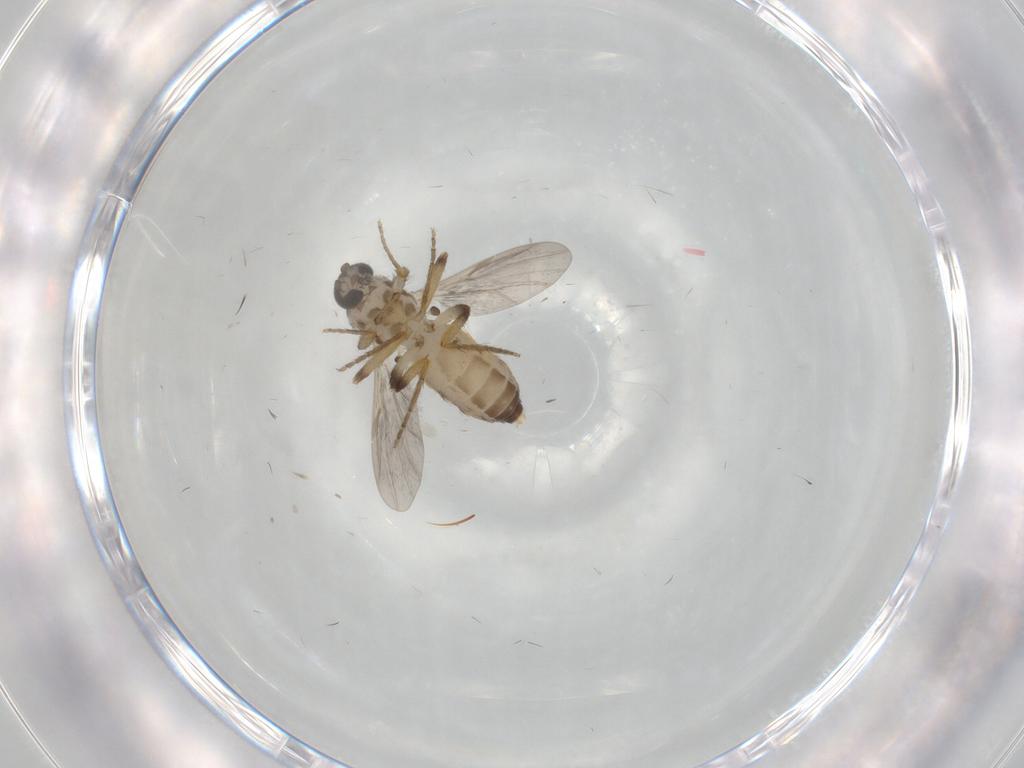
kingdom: Animalia
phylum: Arthropoda
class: Insecta
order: Diptera
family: Ceratopogonidae
